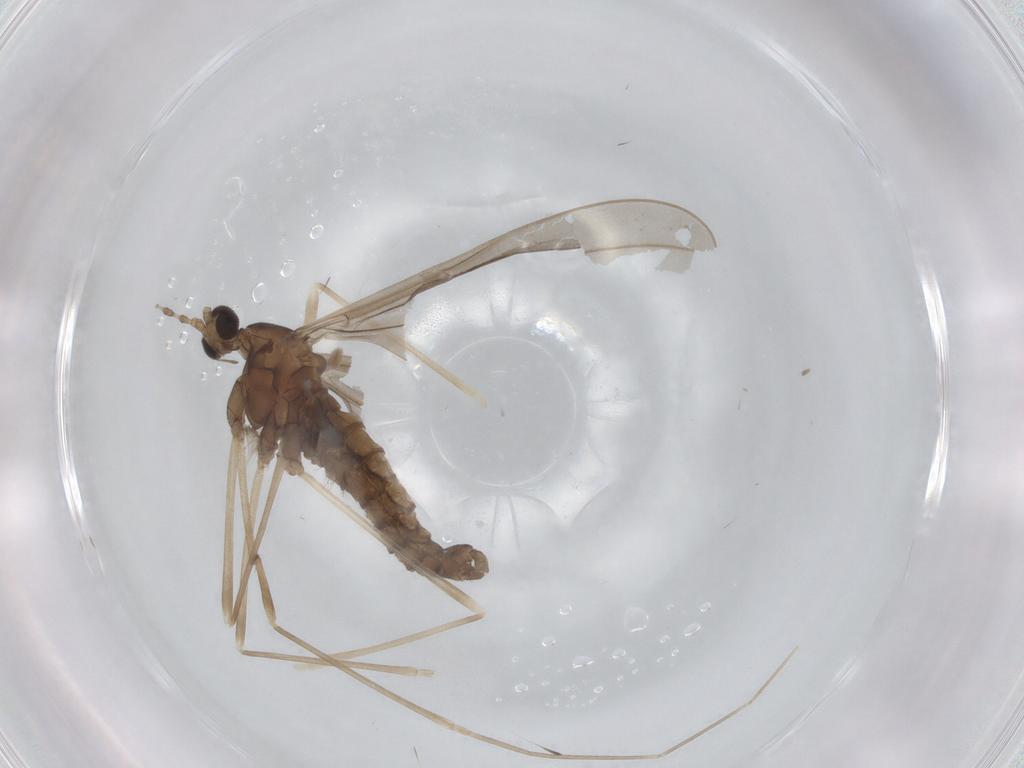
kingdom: Animalia
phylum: Arthropoda
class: Insecta
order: Diptera
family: Cecidomyiidae
